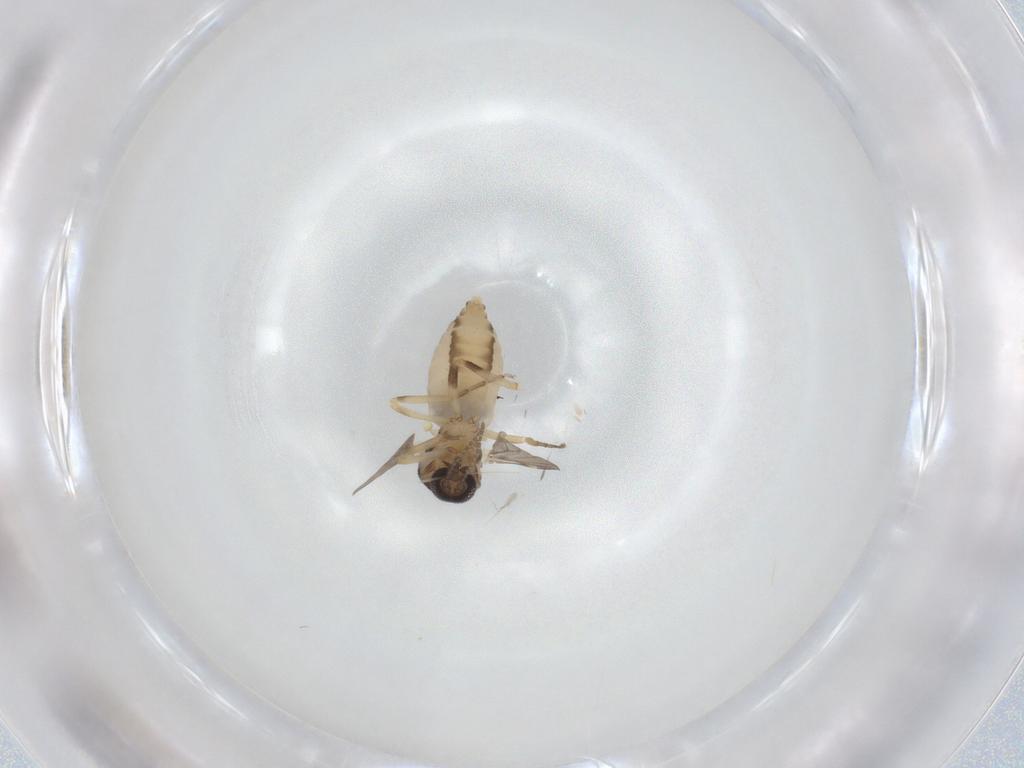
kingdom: Animalia
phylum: Arthropoda
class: Insecta
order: Diptera
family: Ceratopogonidae
